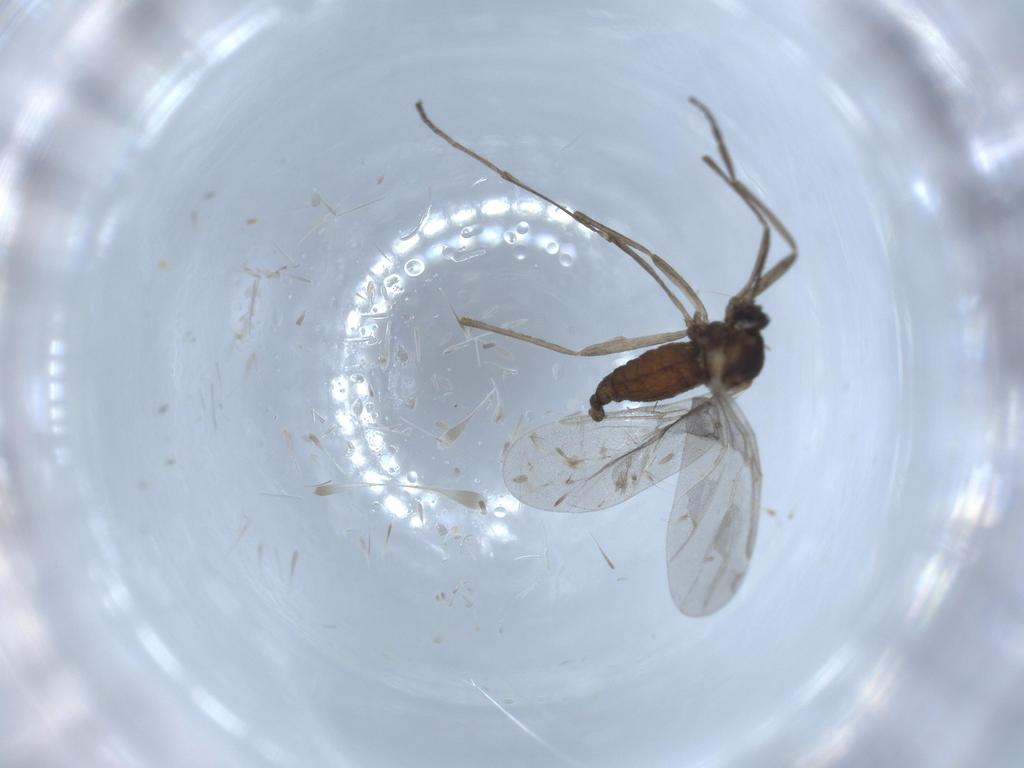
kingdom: Animalia
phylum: Arthropoda
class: Insecta
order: Diptera
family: Cecidomyiidae
